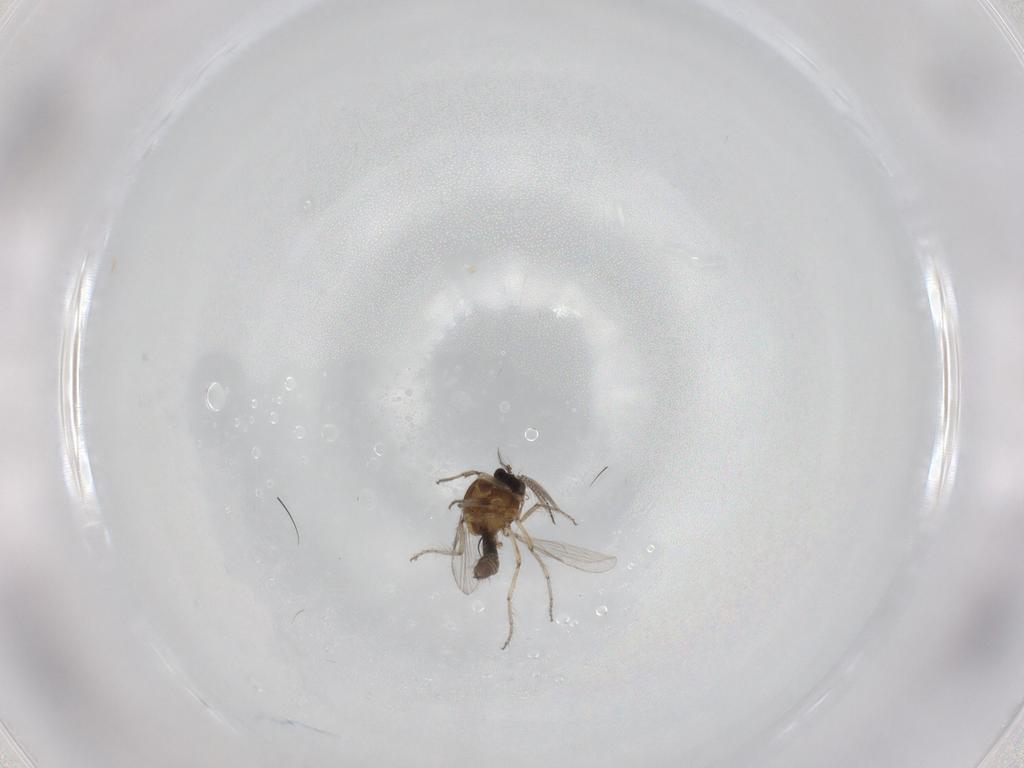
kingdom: Animalia
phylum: Arthropoda
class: Insecta
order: Diptera
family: Ceratopogonidae
